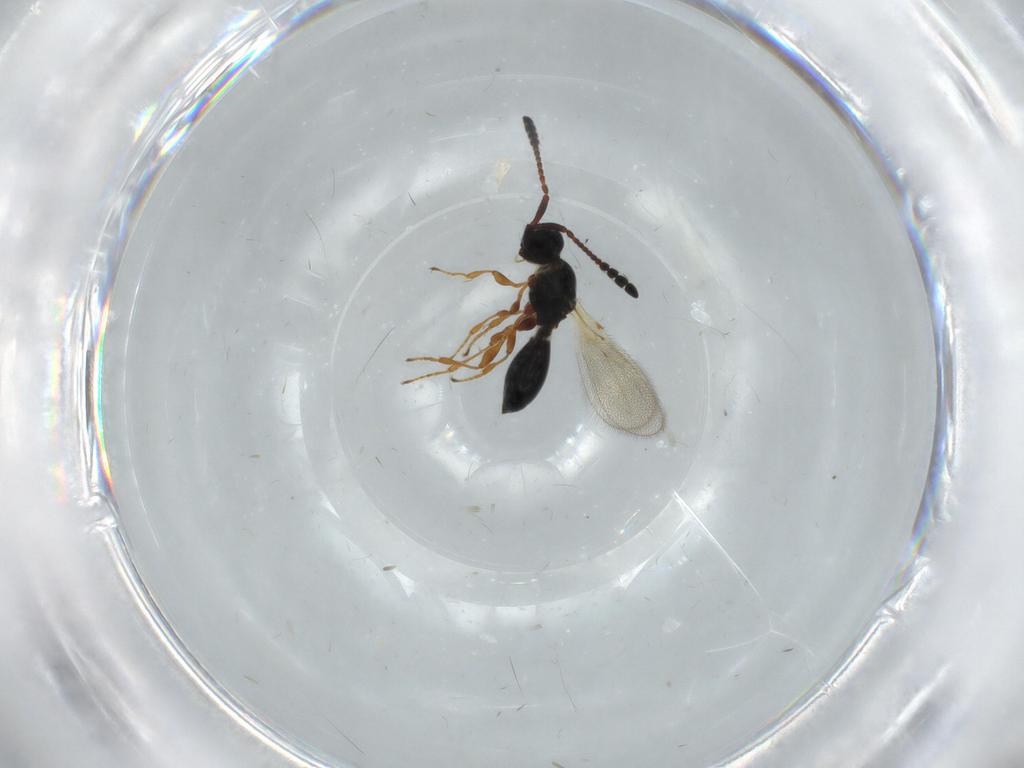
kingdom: Animalia
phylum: Arthropoda
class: Insecta
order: Hymenoptera
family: Diapriidae
